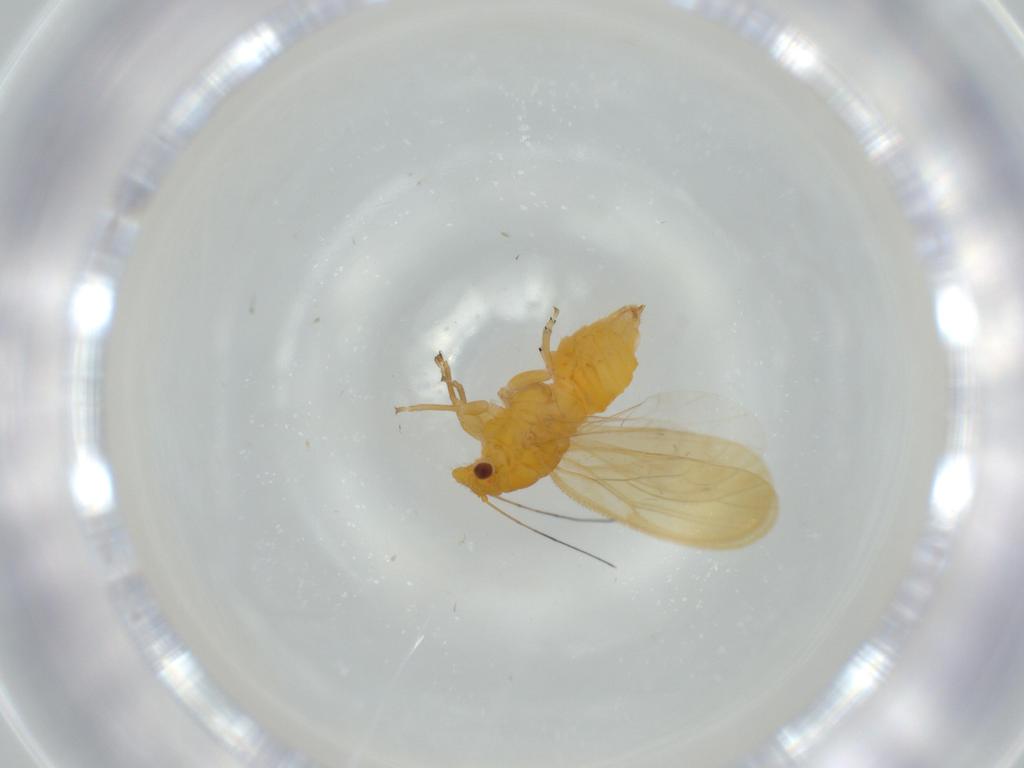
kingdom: Animalia
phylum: Arthropoda
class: Insecta
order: Hemiptera
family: Psyllidae
